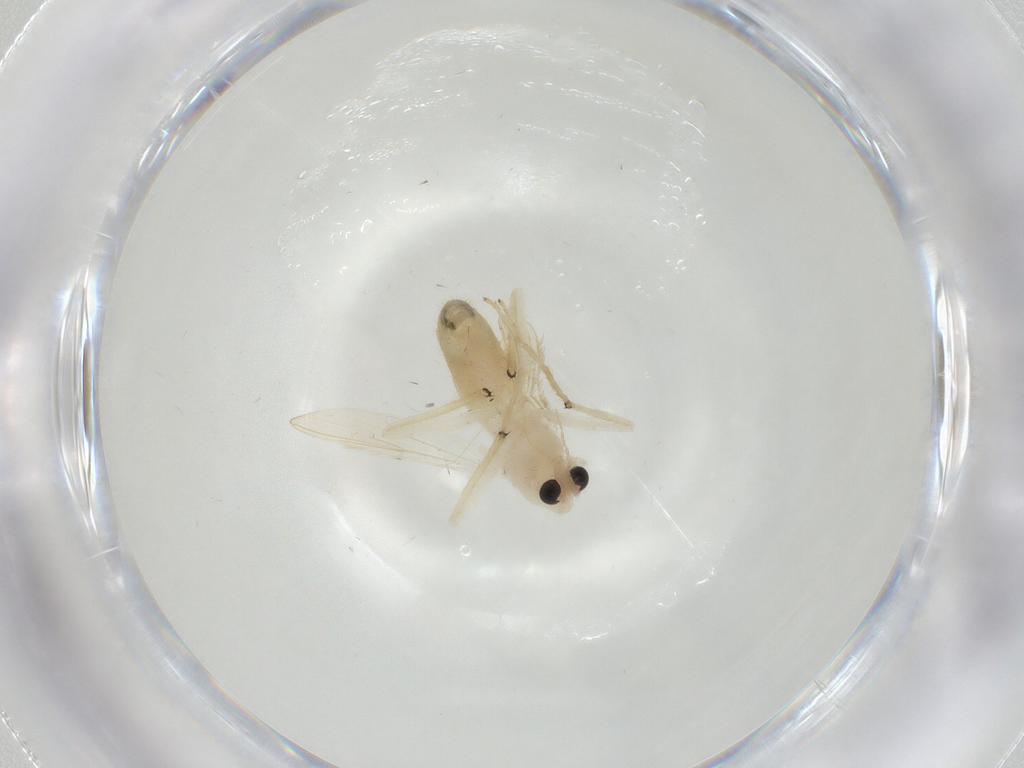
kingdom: Animalia
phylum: Arthropoda
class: Insecta
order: Diptera
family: Chironomidae
